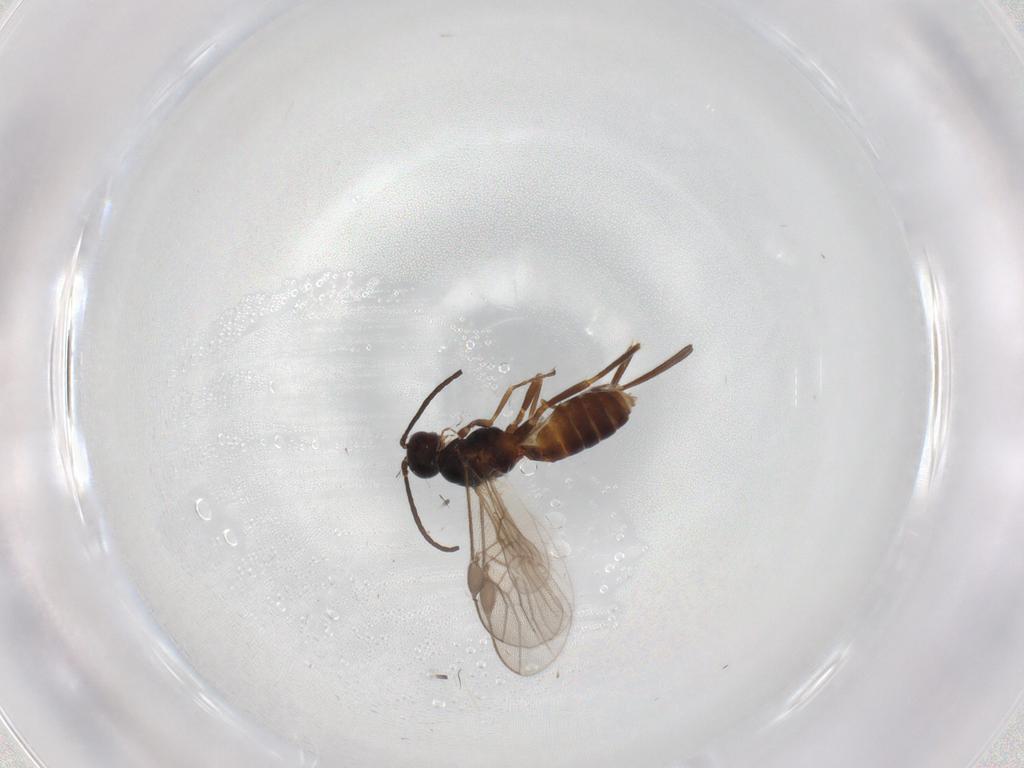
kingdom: Animalia
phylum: Arthropoda
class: Insecta
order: Hymenoptera
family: Braconidae
